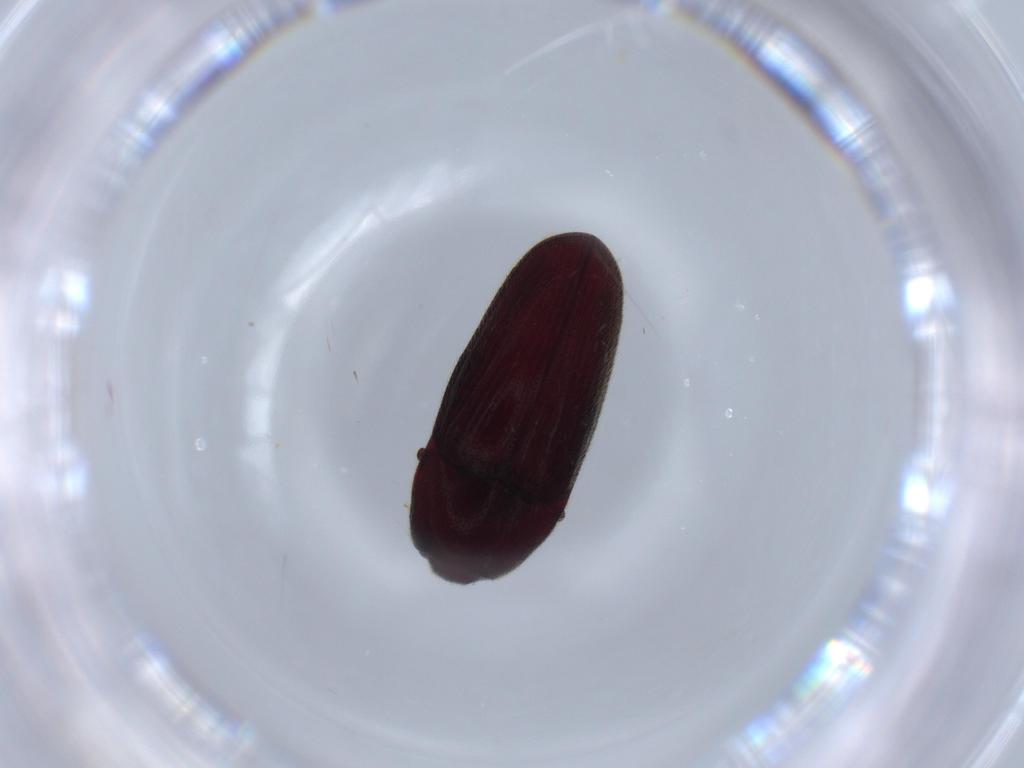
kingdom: Animalia
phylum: Arthropoda
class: Insecta
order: Coleoptera
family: Throscidae
